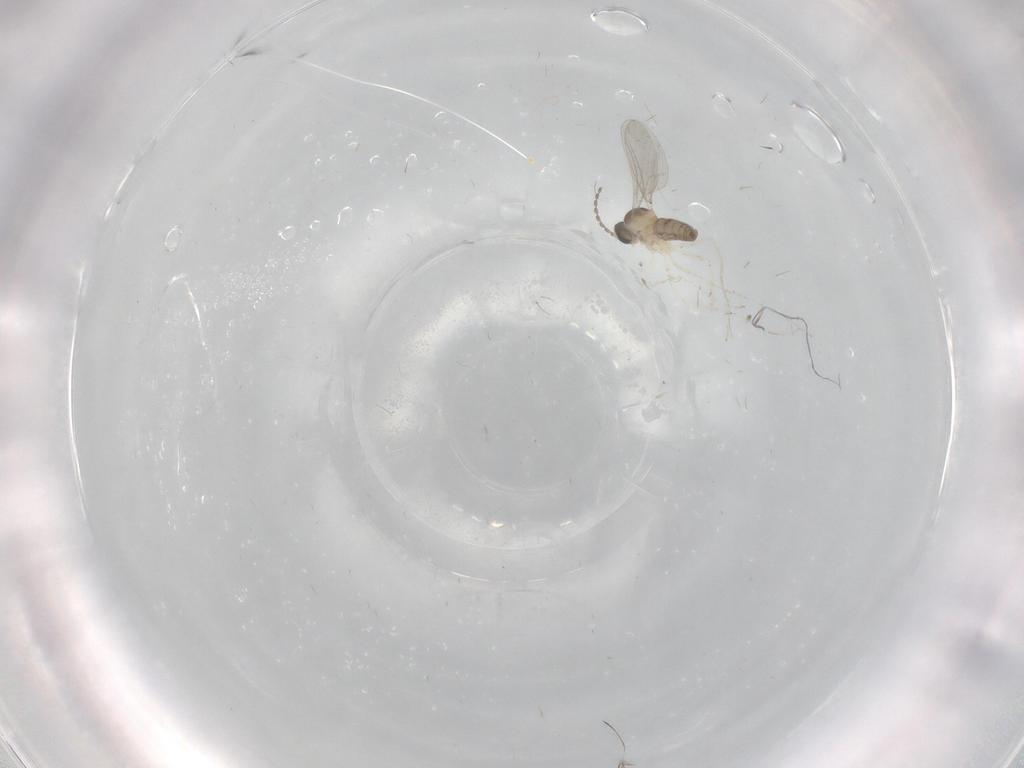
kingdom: Animalia
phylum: Arthropoda
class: Insecta
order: Diptera
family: Cecidomyiidae
